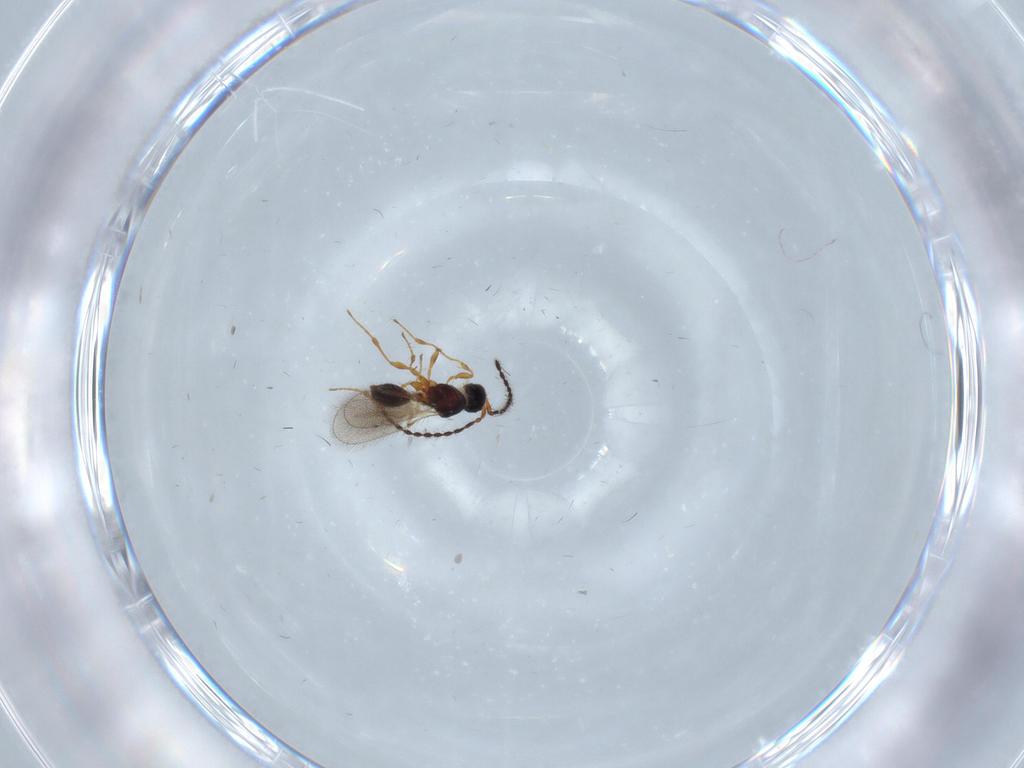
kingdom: Animalia
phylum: Arthropoda
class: Insecta
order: Hymenoptera
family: Diapriidae
